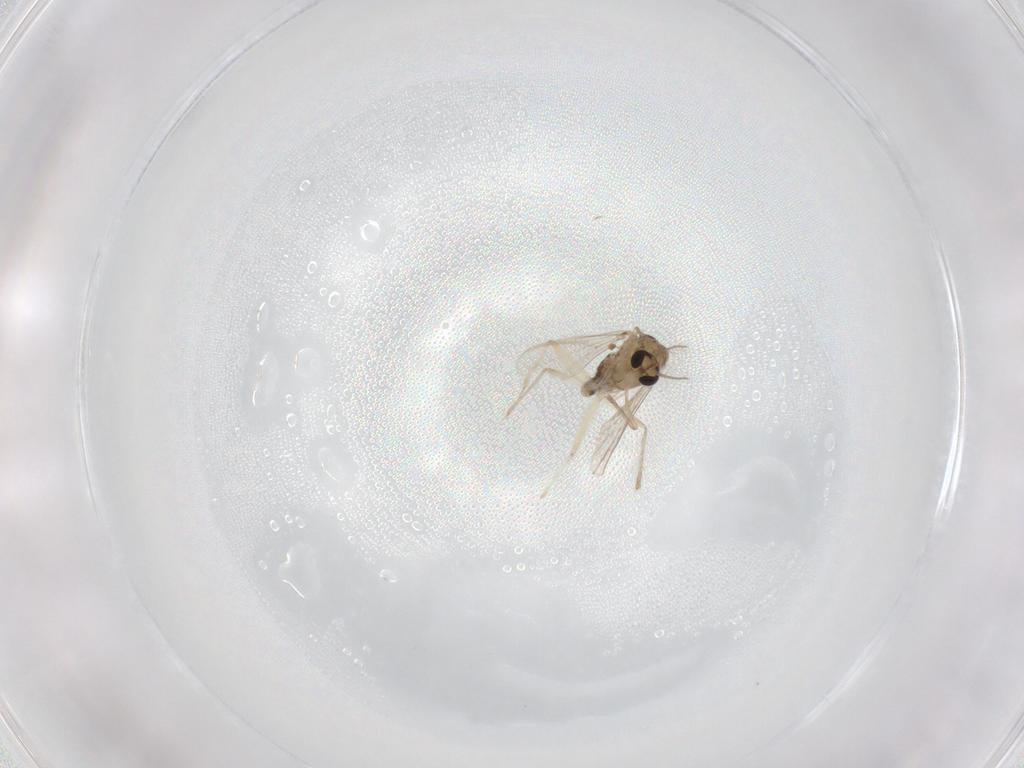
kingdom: Animalia
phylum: Arthropoda
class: Insecta
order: Diptera
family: Chironomidae
